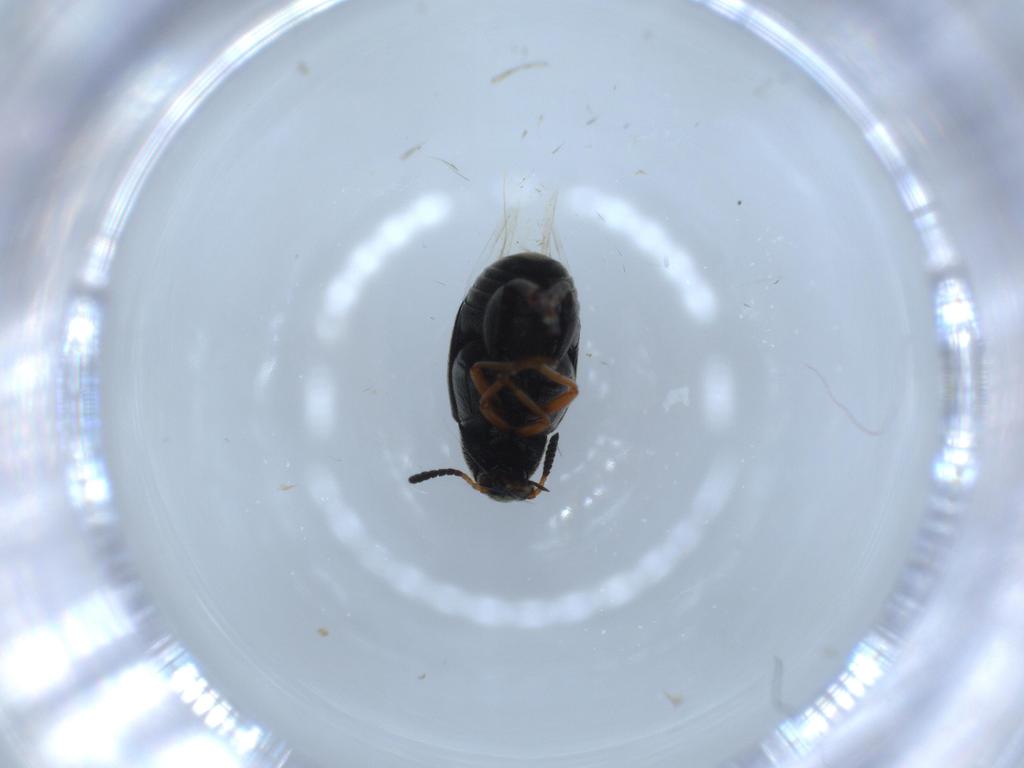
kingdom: Animalia
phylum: Arthropoda
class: Insecta
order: Coleoptera
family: Chrysomelidae
